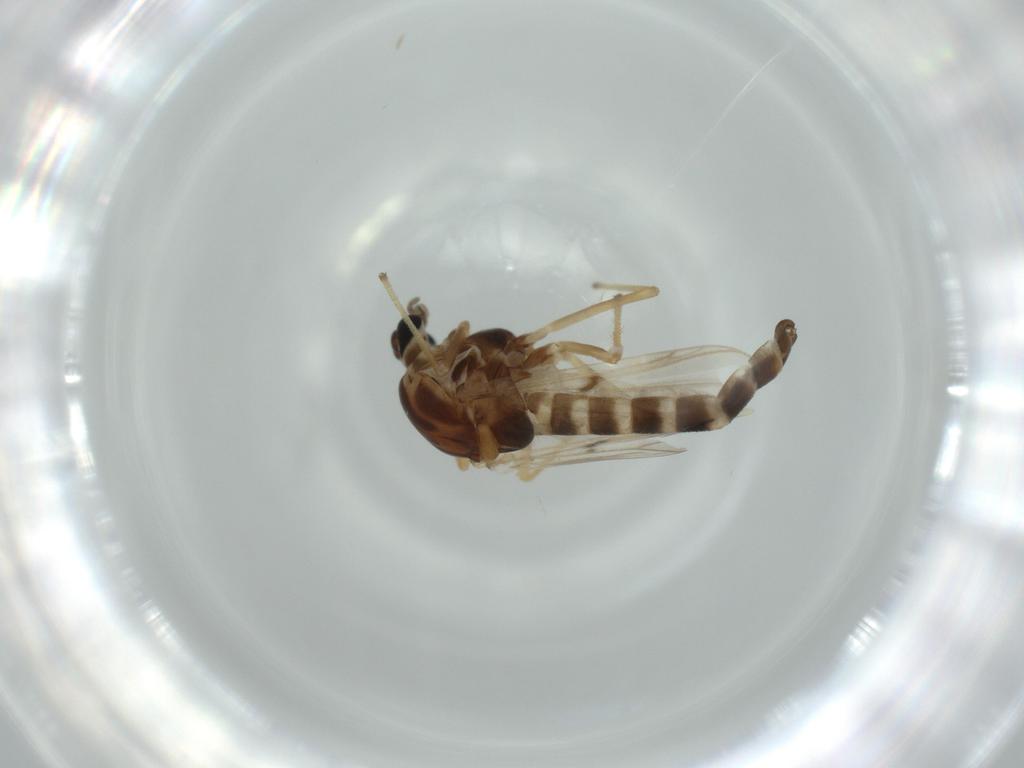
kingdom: Animalia
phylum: Arthropoda
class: Insecta
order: Diptera
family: Chironomidae
